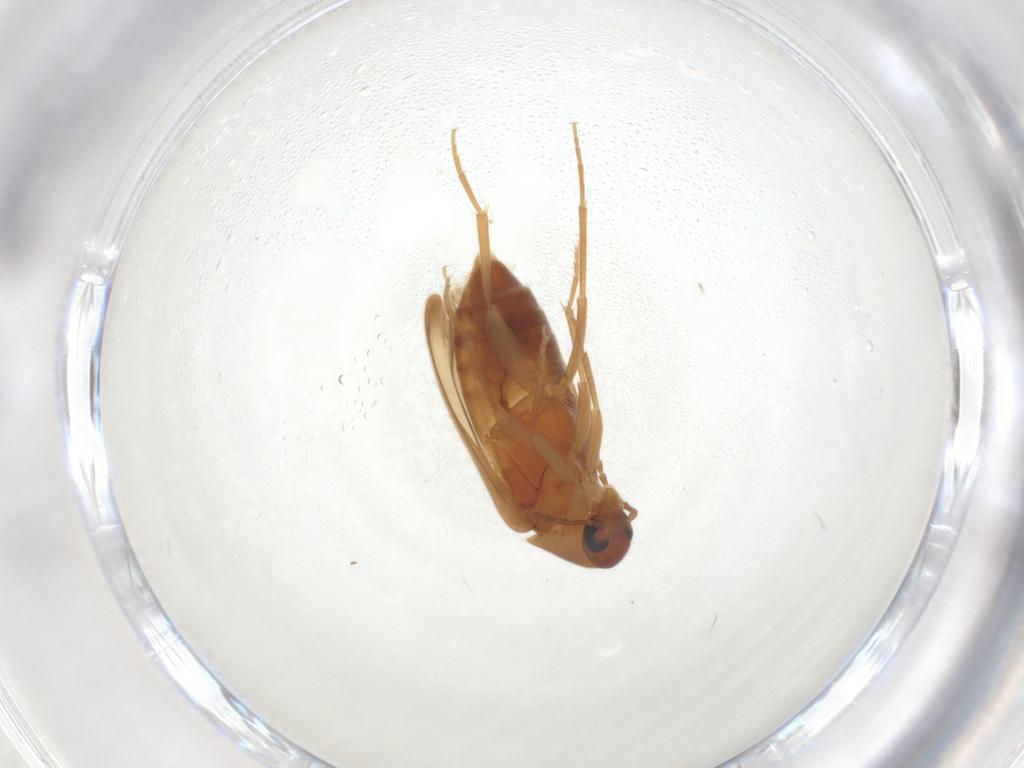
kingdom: Animalia
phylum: Arthropoda
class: Insecta
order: Coleoptera
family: Scraptiidae
